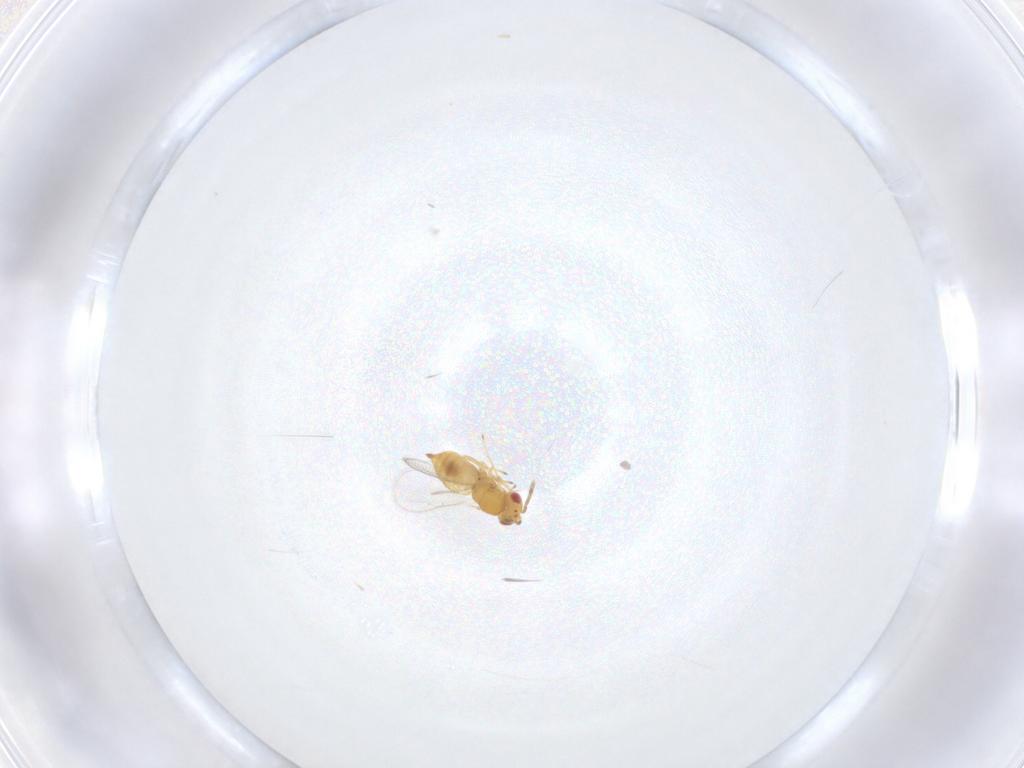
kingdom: Animalia
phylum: Arthropoda
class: Insecta
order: Hymenoptera
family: Eulophidae
